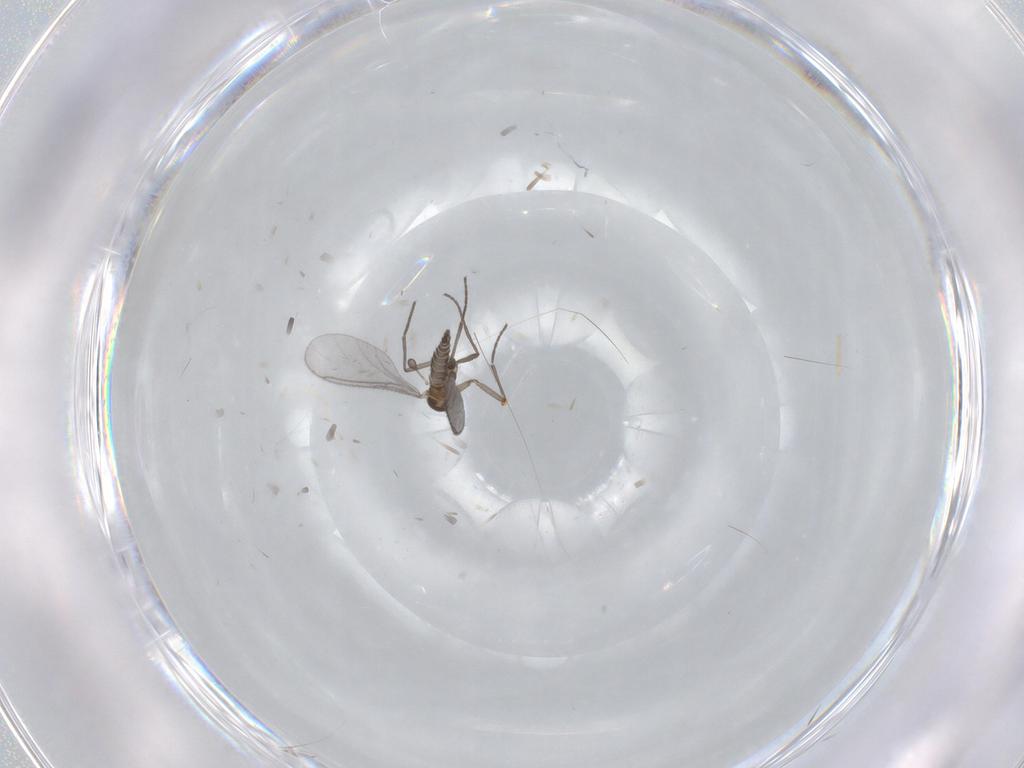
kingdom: Animalia
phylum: Arthropoda
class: Insecta
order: Diptera
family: Sciaridae
